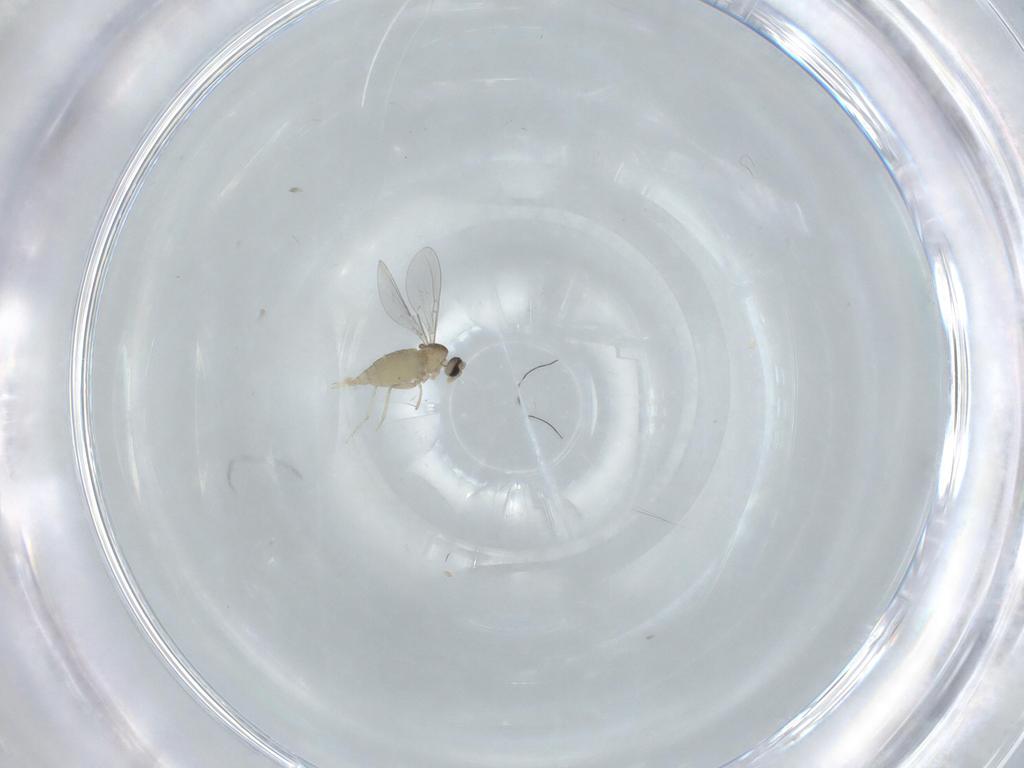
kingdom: Animalia
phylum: Arthropoda
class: Insecta
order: Diptera
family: Cecidomyiidae
